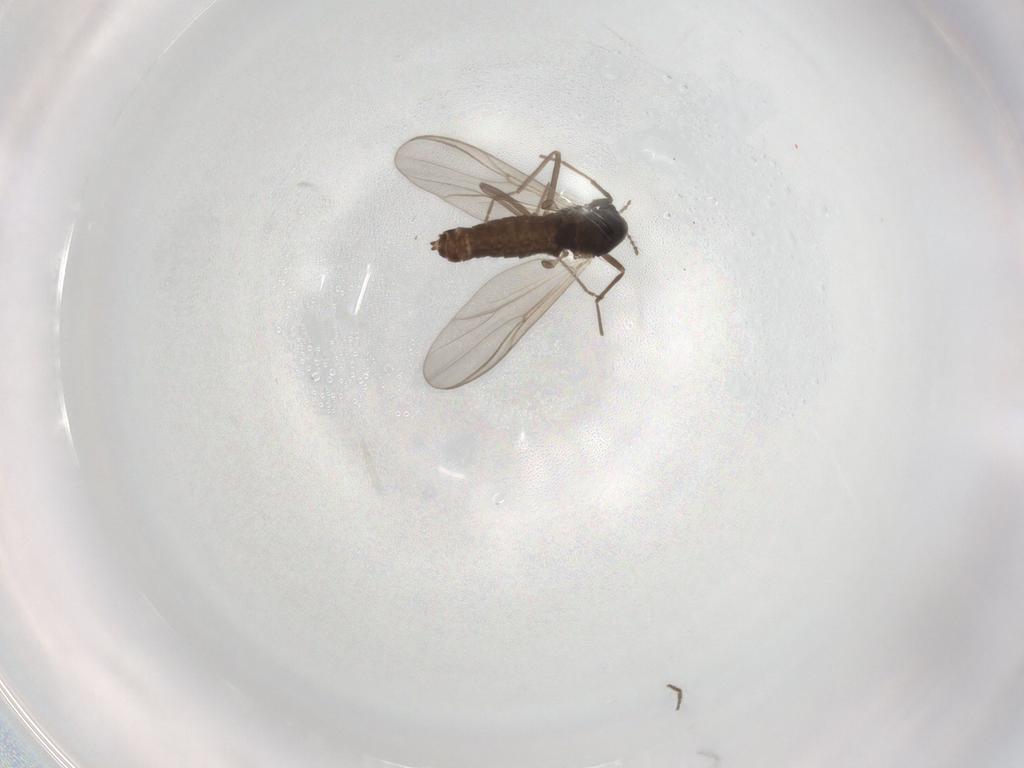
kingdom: Animalia
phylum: Arthropoda
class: Insecta
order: Diptera
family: Chironomidae
